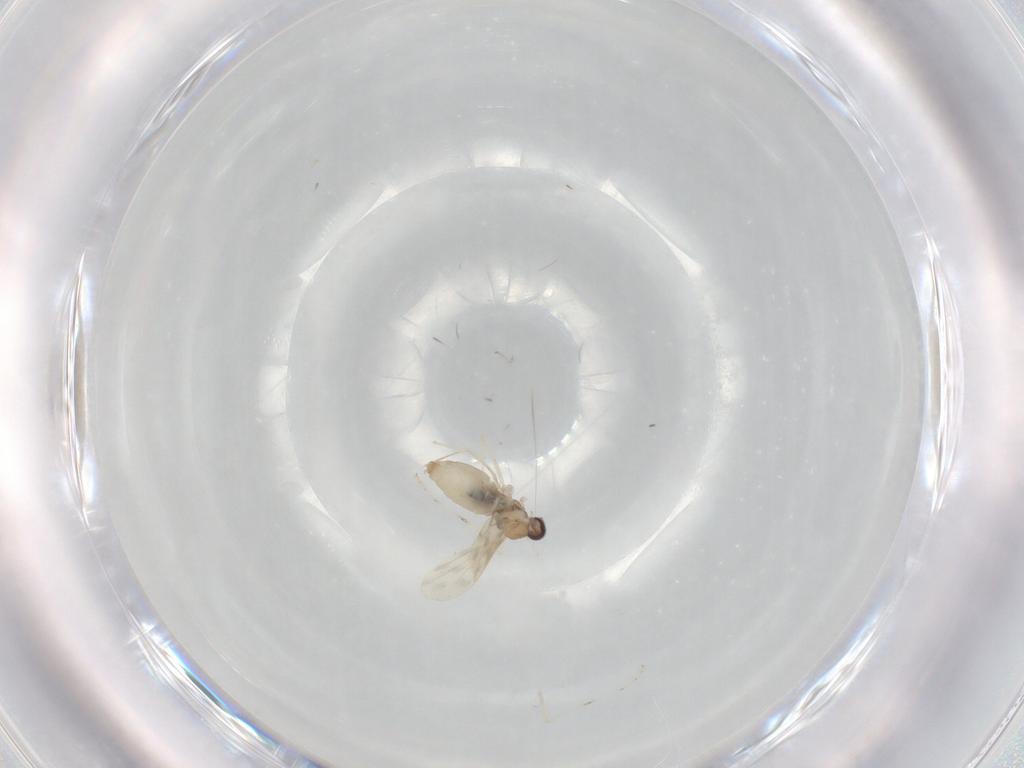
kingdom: Animalia
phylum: Arthropoda
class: Insecta
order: Diptera
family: Cecidomyiidae
